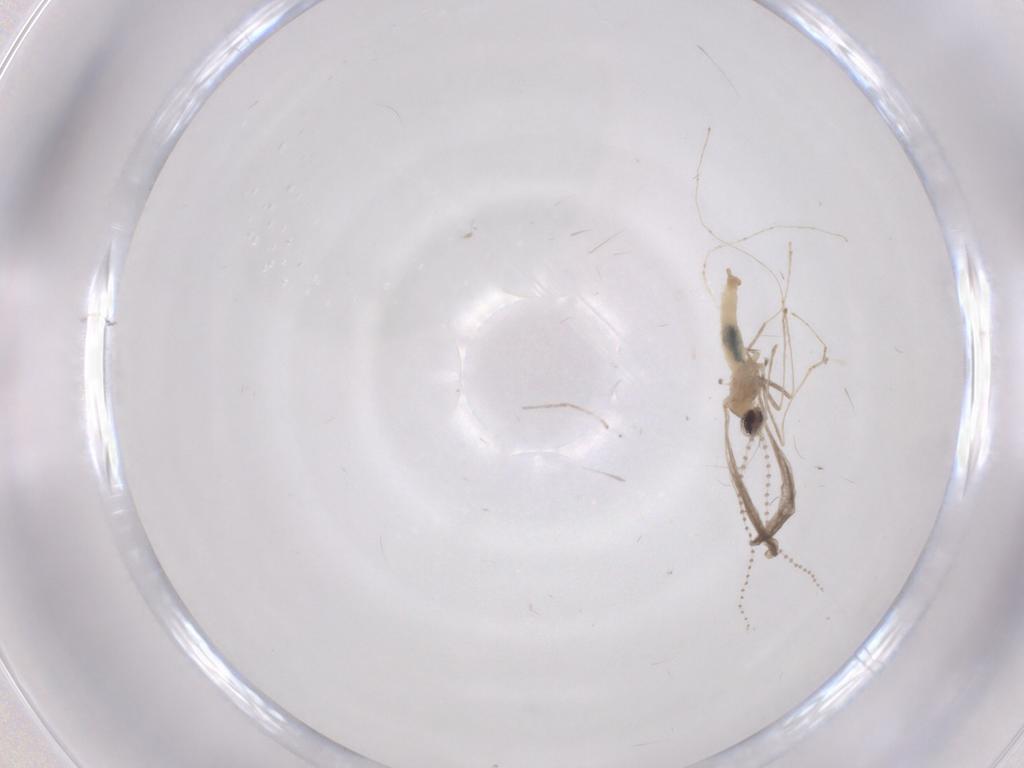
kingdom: Animalia
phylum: Arthropoda
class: Insecta
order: Diptera
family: Cecidomyiidae
